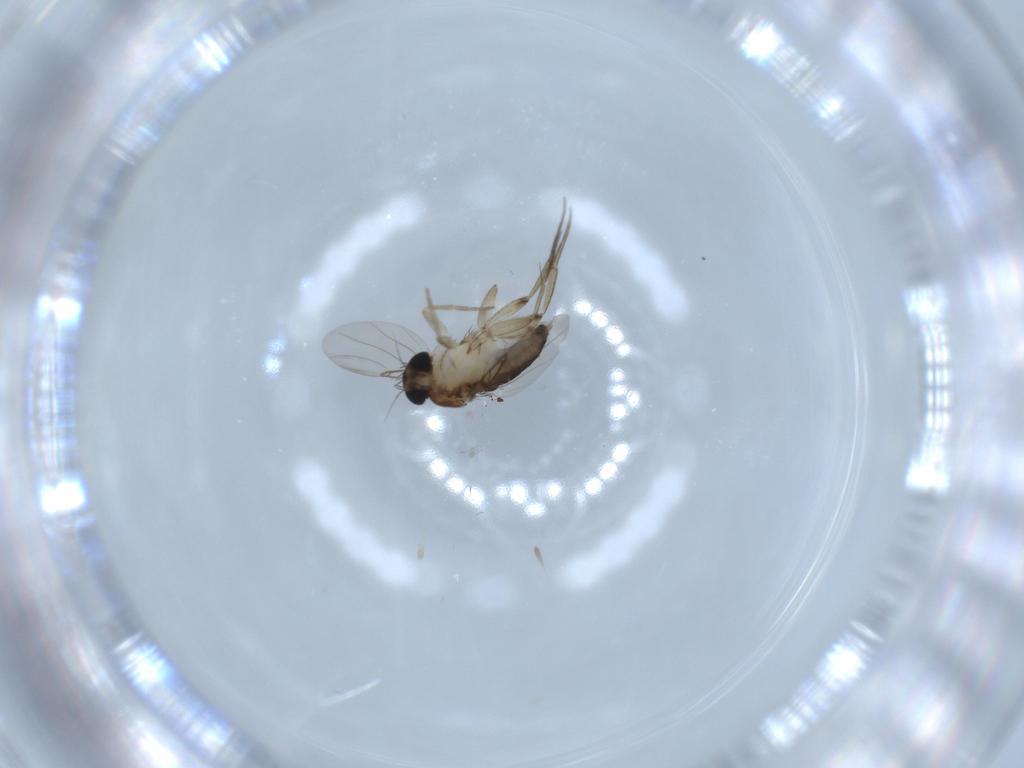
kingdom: Animalia
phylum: Arthropoda
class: Insecta
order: Diptera
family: Phoridae
